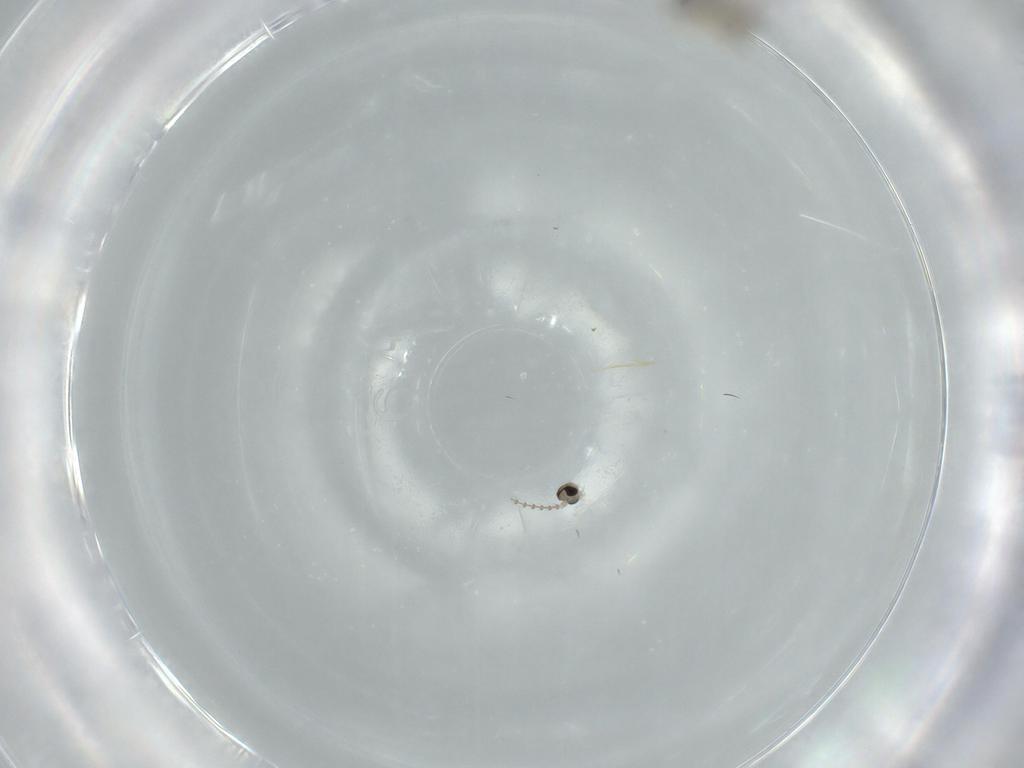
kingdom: Animalia
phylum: Arthropoda
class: Insecta
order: Diptera
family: Cecidomyiidae
